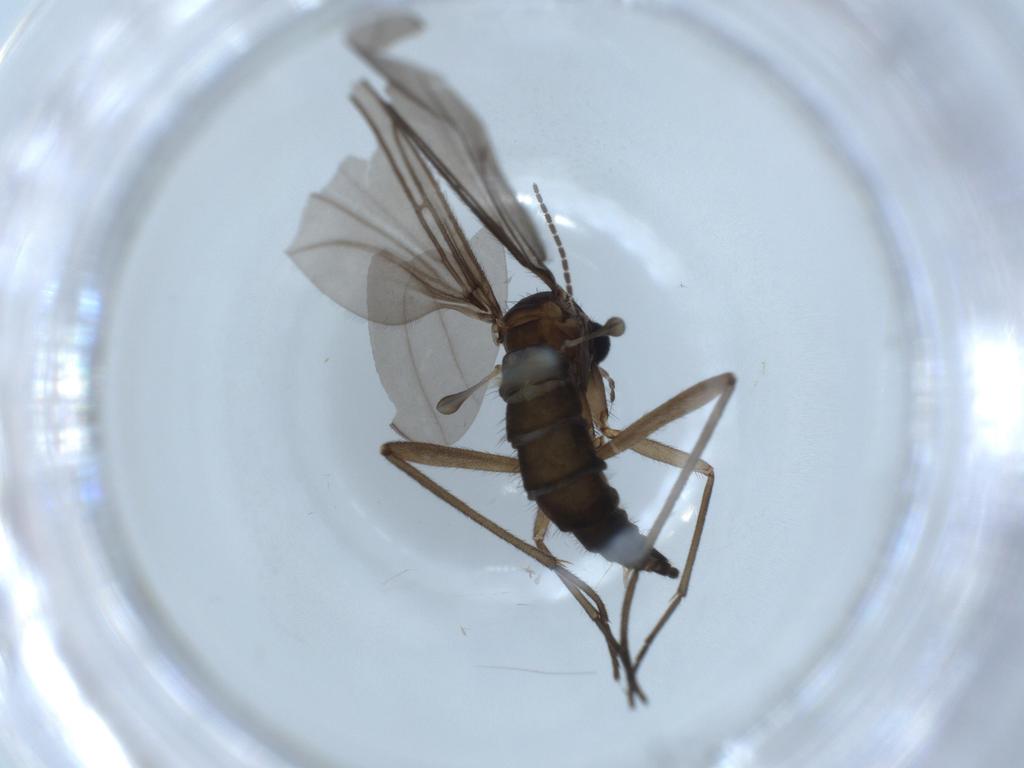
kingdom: Animalia
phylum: Arthropoda
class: Insecta
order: Diptera
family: Sciaridae
